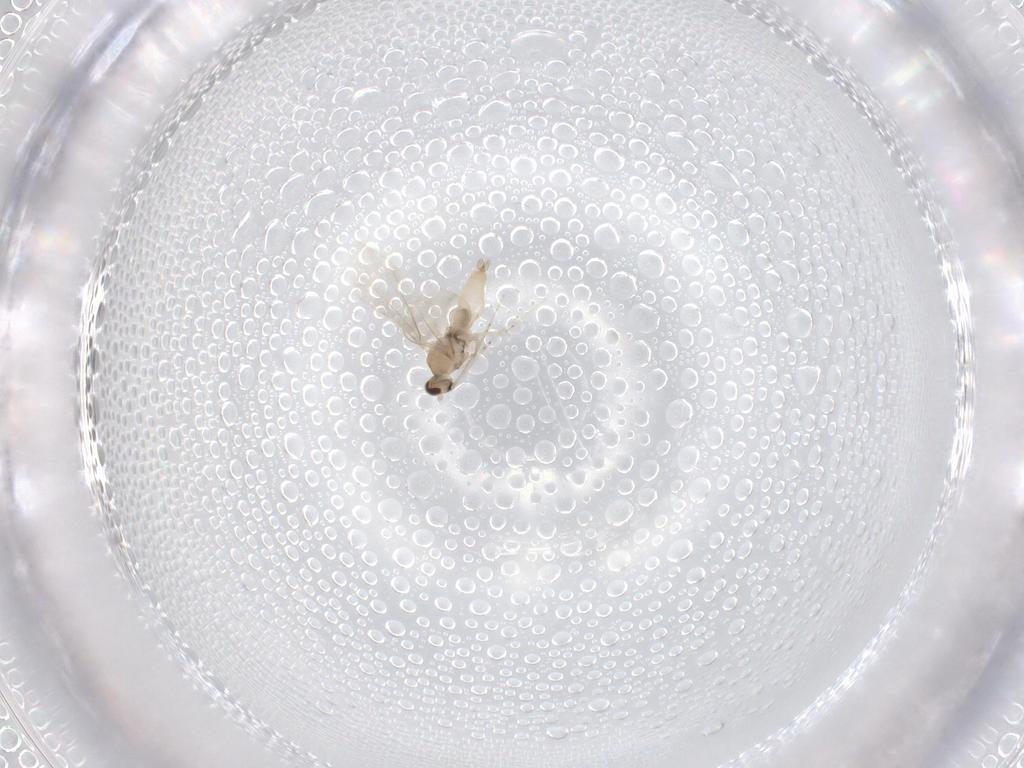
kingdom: Animalia
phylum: Arthropoda
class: Insecta
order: Diptera
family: Cecidomyiidae
